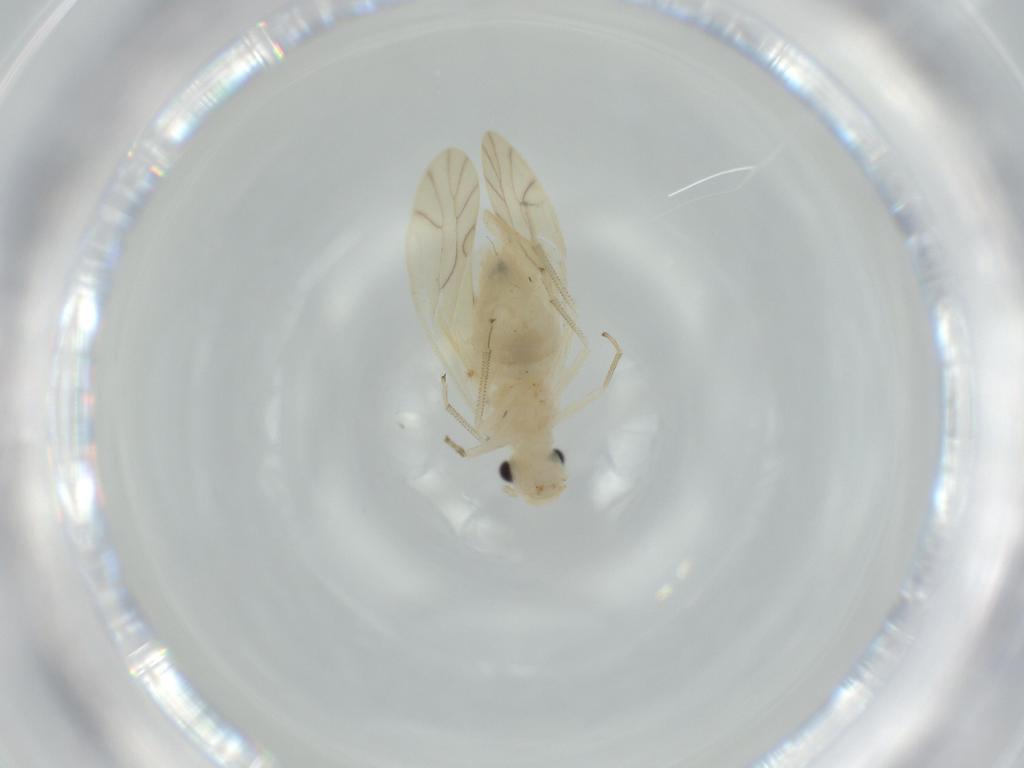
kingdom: Animalia
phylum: Arthropoda
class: Insecta
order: Psocodea
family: Caeciliusidae
